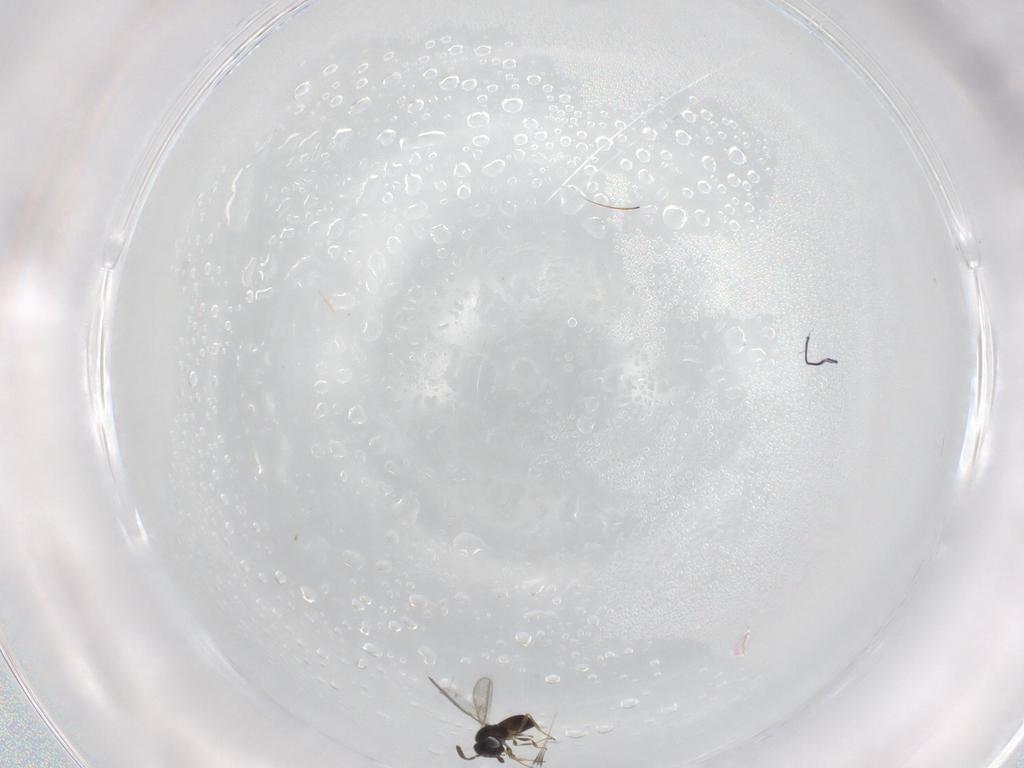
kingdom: Animalia
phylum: Arthropoda
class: Insecta
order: Hymenoptera
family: Scelionidae
